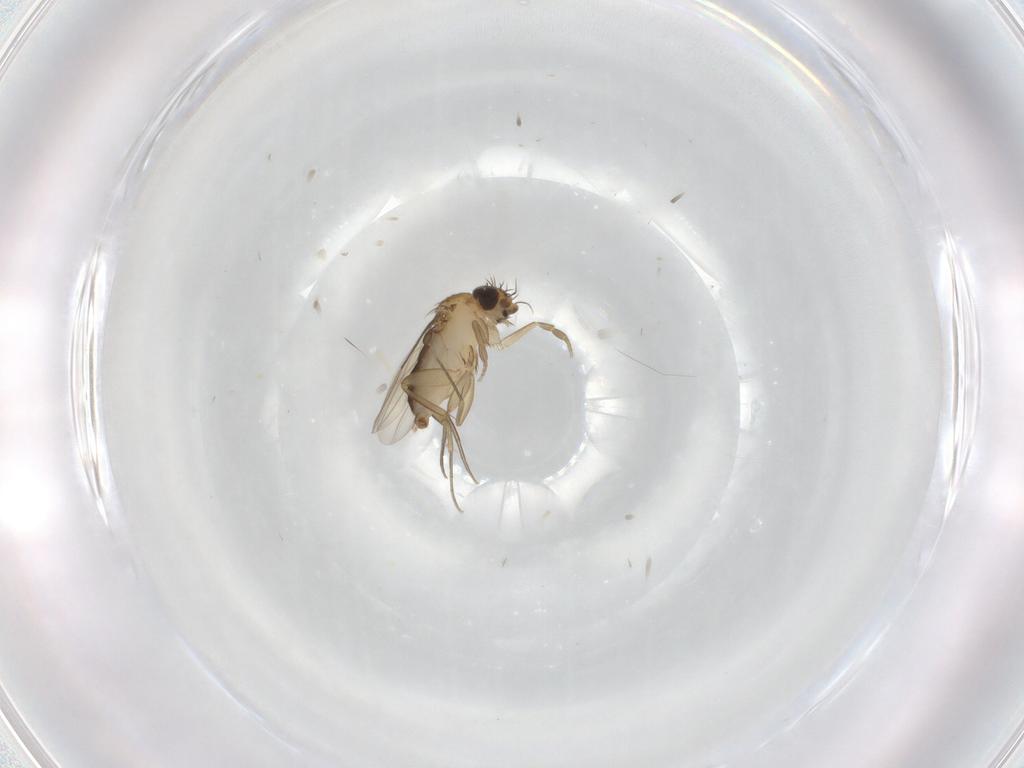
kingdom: Animalia
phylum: Arthropoda
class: Insecta
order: Diptera
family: Phoridae
